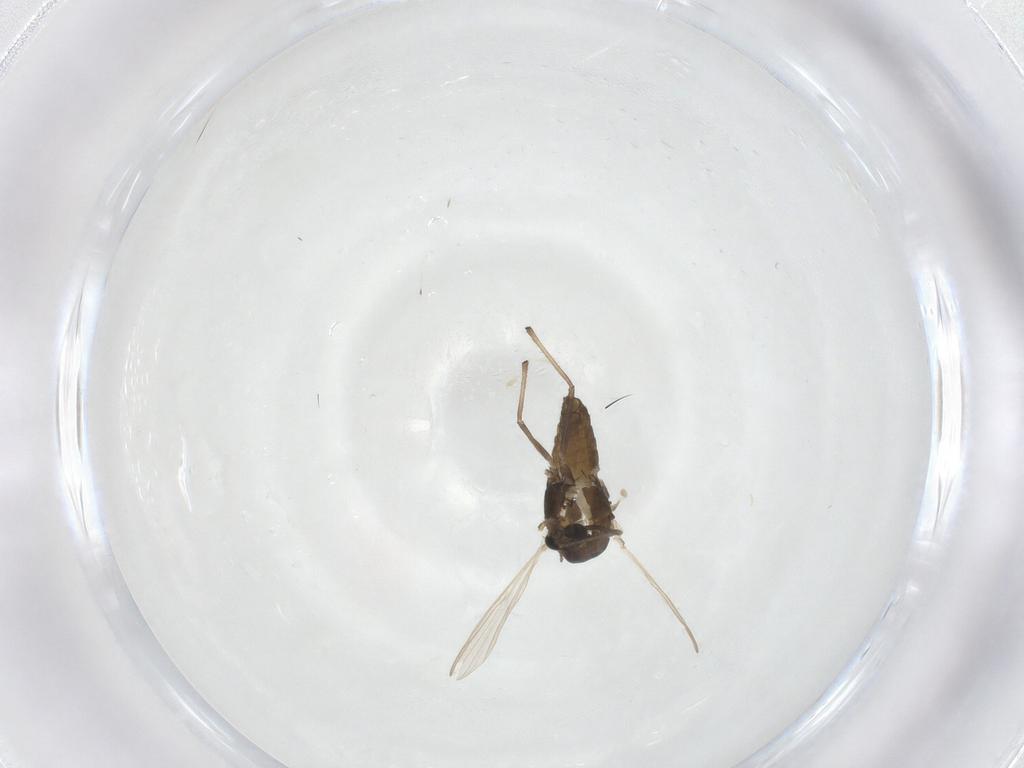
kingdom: Animalia
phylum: Arthropoda
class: Insecta
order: Diptera
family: Chironomidae
